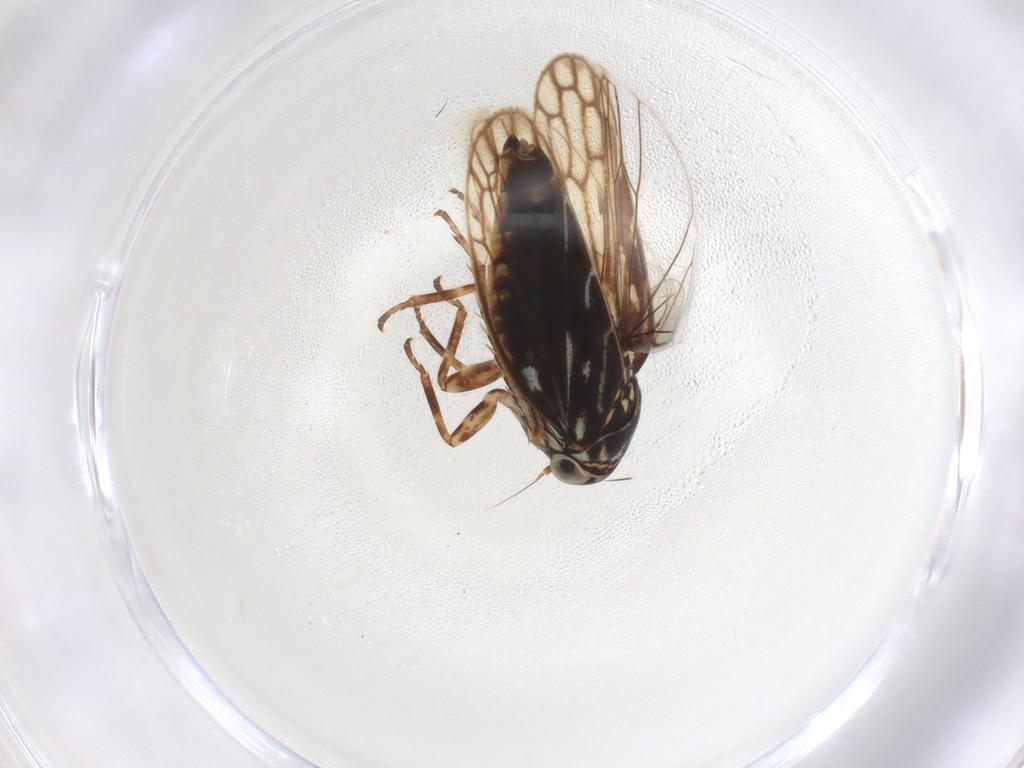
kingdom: Animalia
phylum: Arthropoda
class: Insecta
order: Hemiptera
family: Cicadellidae
